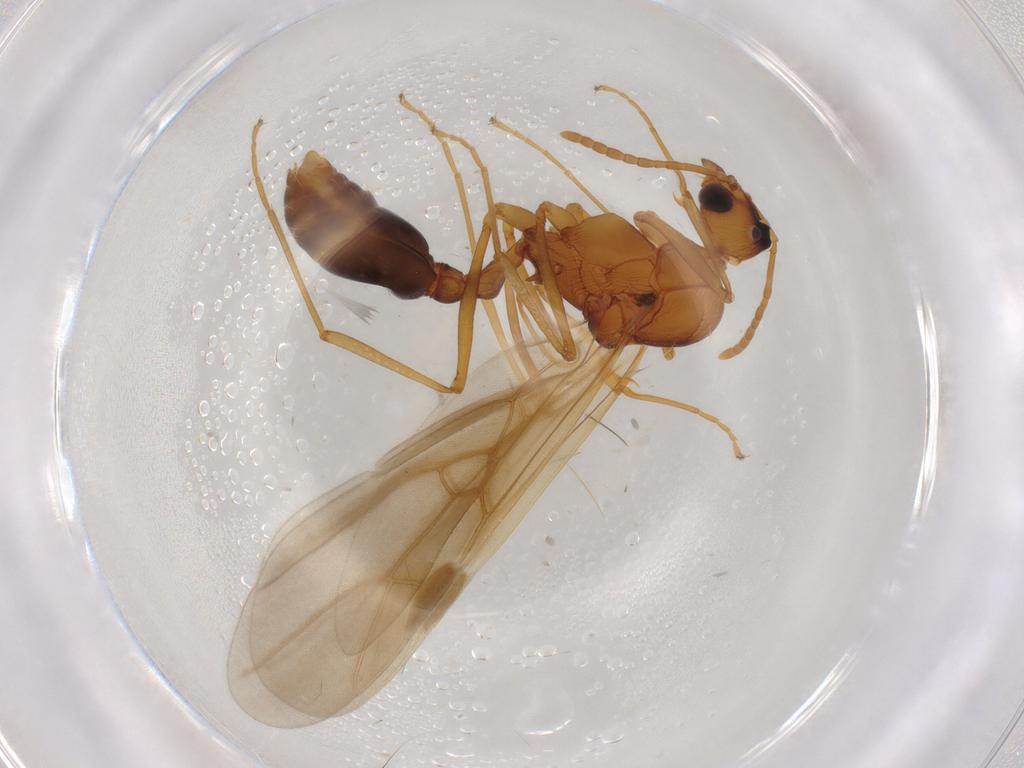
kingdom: Animalia
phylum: Arthropoda
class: Insecta
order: Hymenoptera
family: Formicidae
